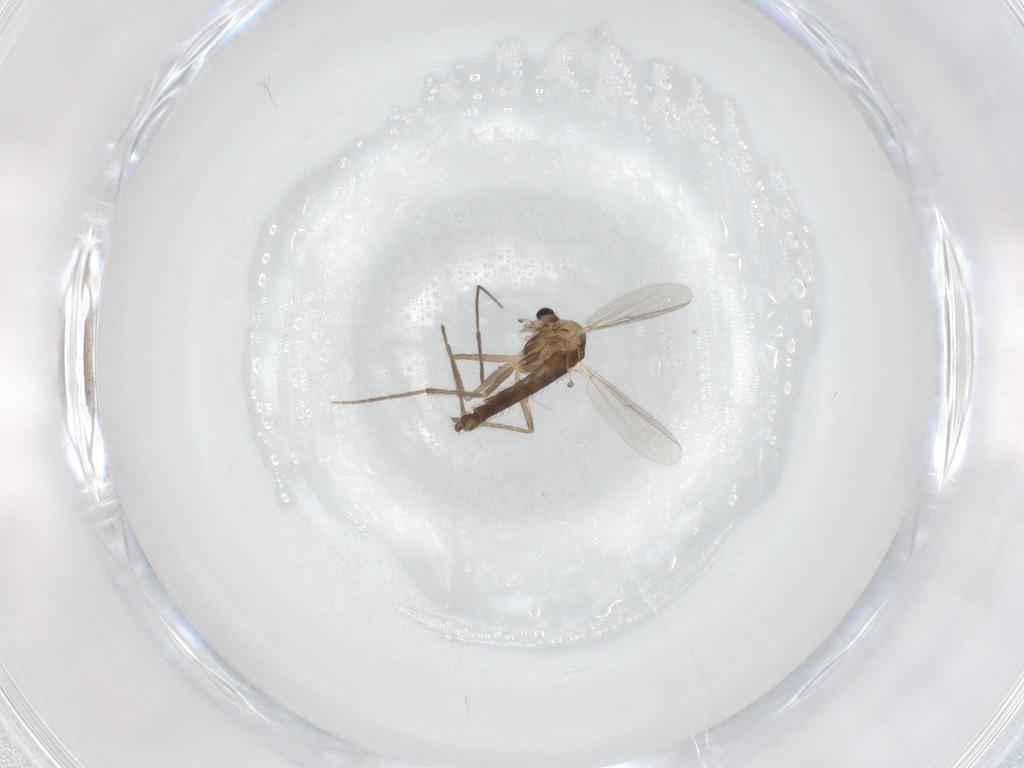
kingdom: Animalia
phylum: Arthropoda
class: Insecta
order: Diptera
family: Chironomidae
